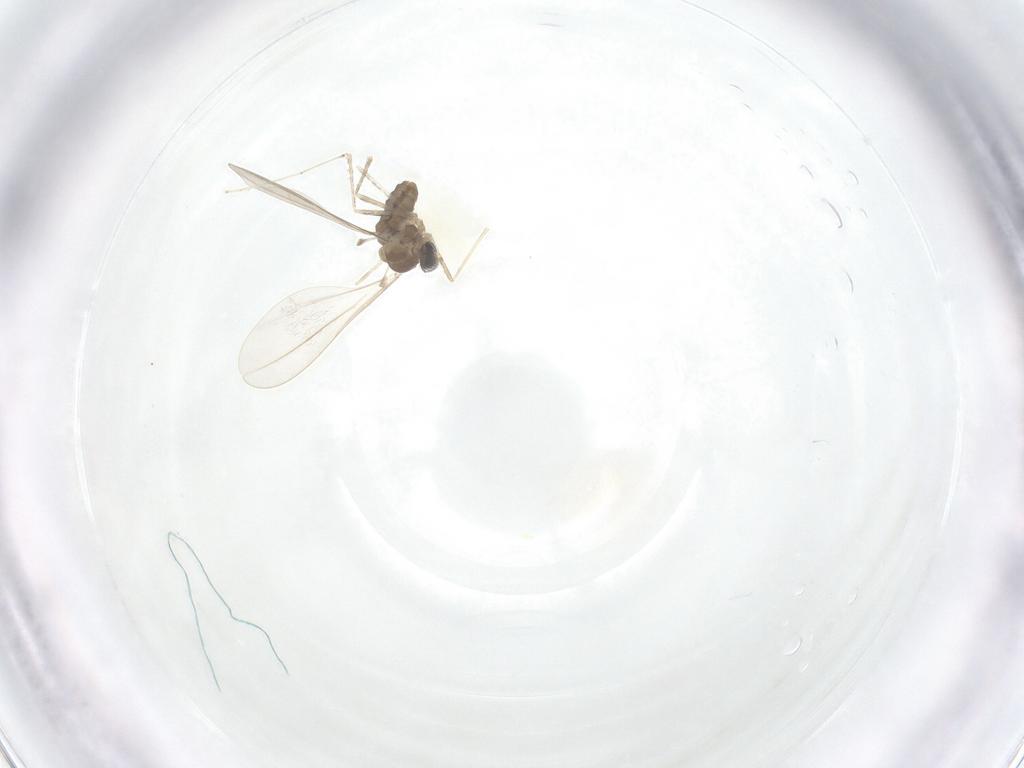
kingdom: Animalia
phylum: Arthropoda
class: Insecta
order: Diptera
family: Cecidomyiidae
